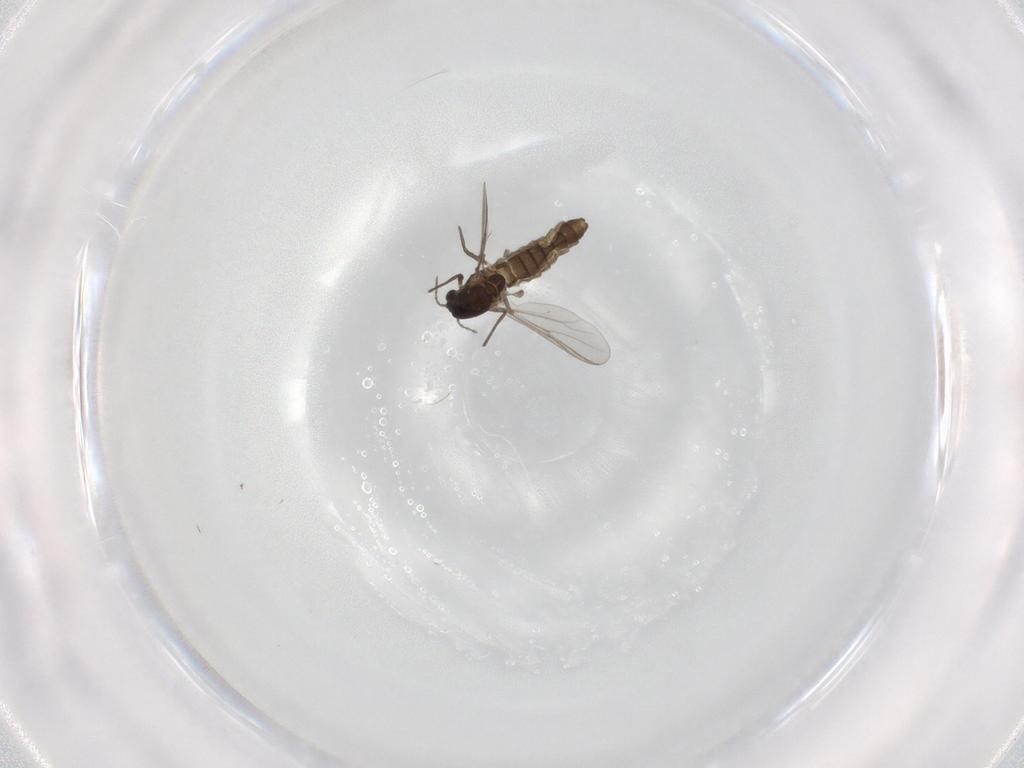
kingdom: Animalia
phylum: Arthropoda
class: Insecta
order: Diptera
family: Chironomidae
